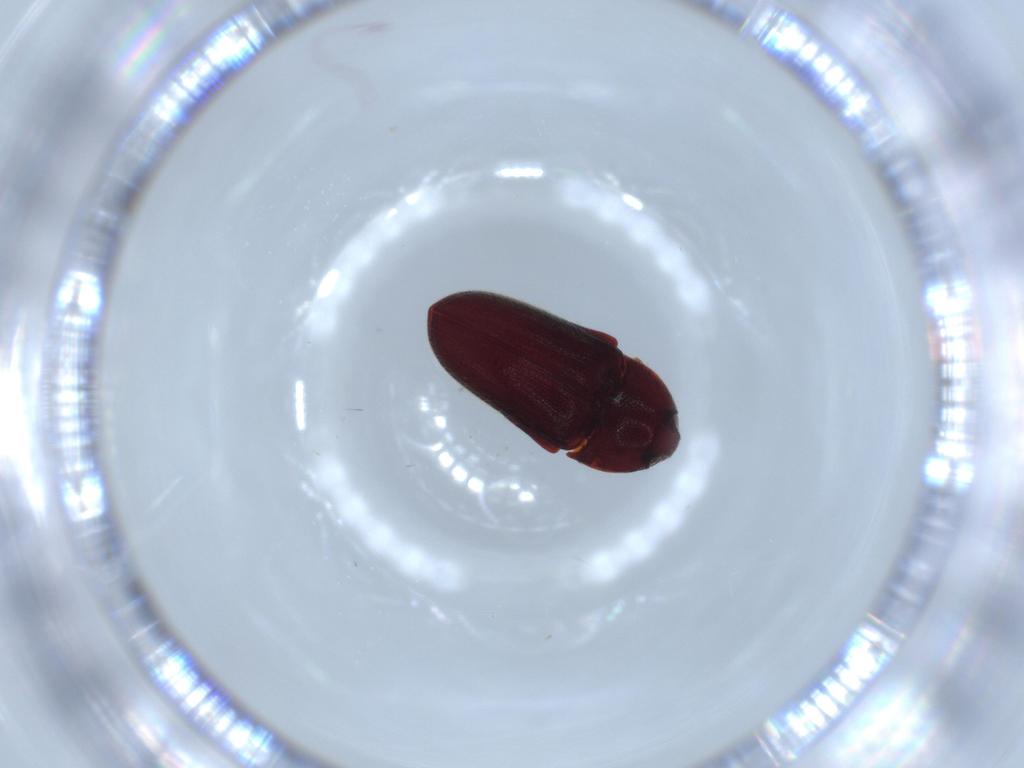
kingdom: Animalia
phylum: Arthropoda
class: Insecta
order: Coleoptera
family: Throscidae
